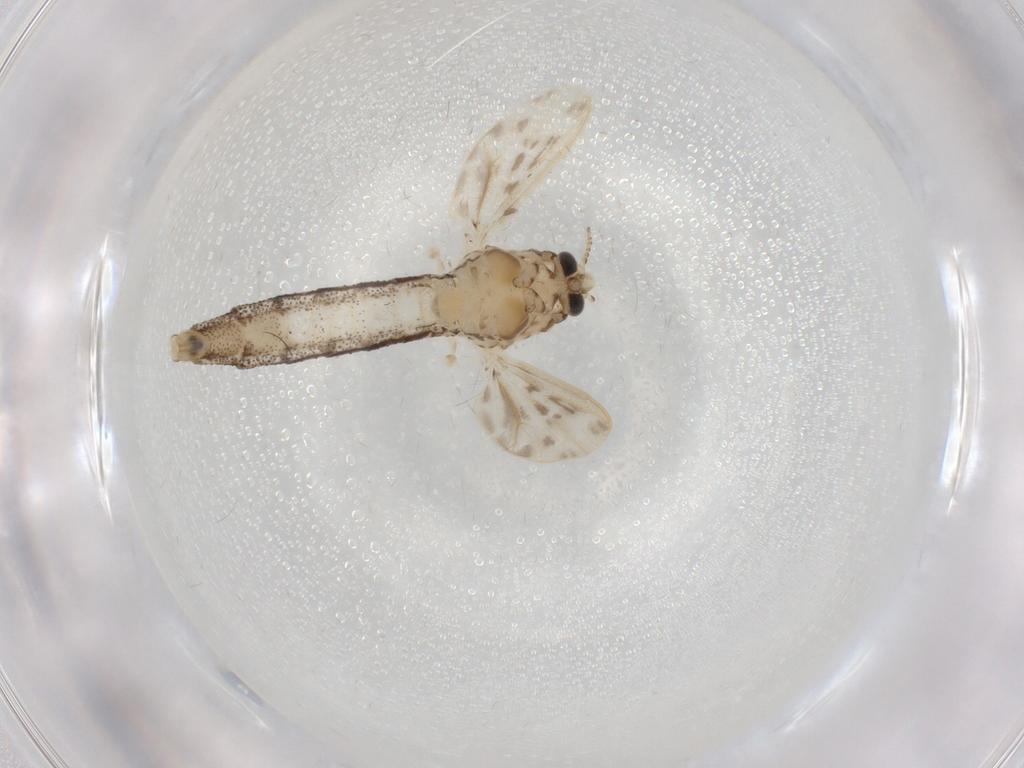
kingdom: Animalia
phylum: Arthropoda
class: Insecta
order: Diptera
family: Chaoboridae
